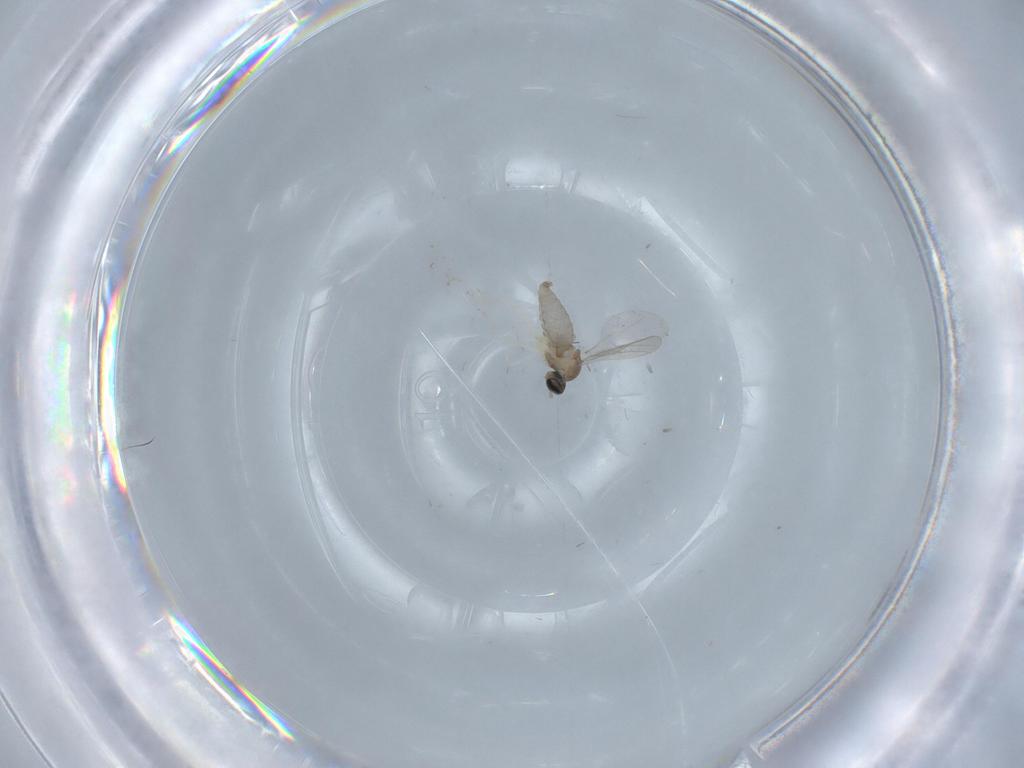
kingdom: Animalia
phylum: Arthropoda
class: Insecta
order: Diptera
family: Cecidomyiidae
